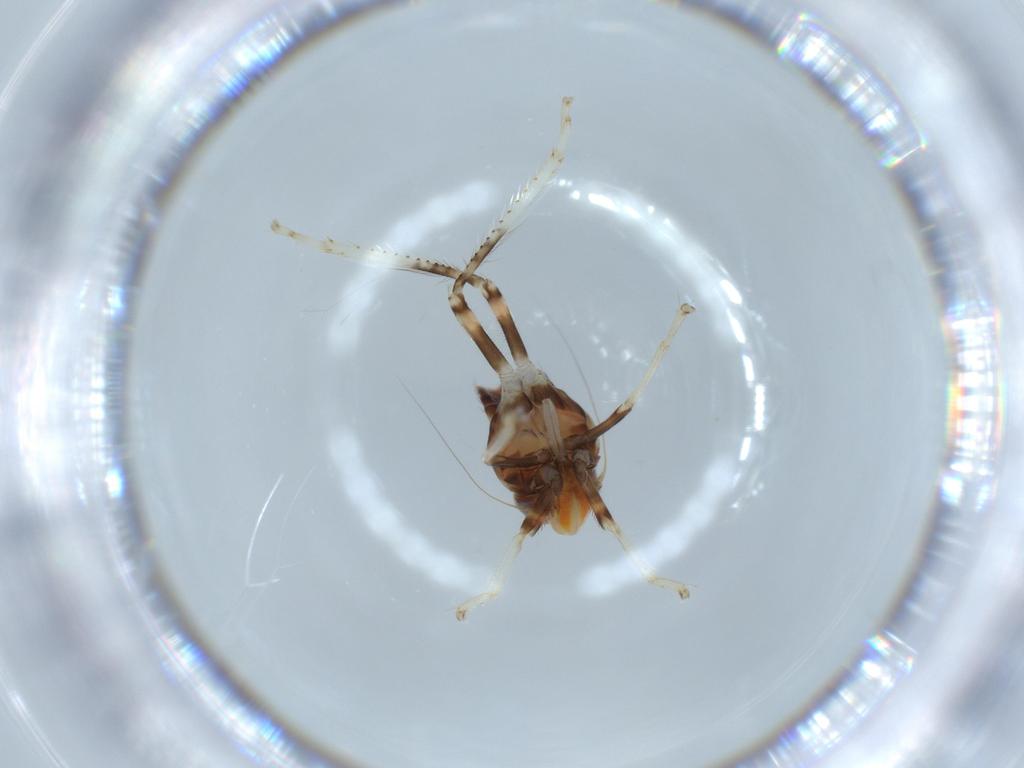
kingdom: Animalia
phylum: Arthropoda
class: Insecta
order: Hemiptera
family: Cicadellidae
